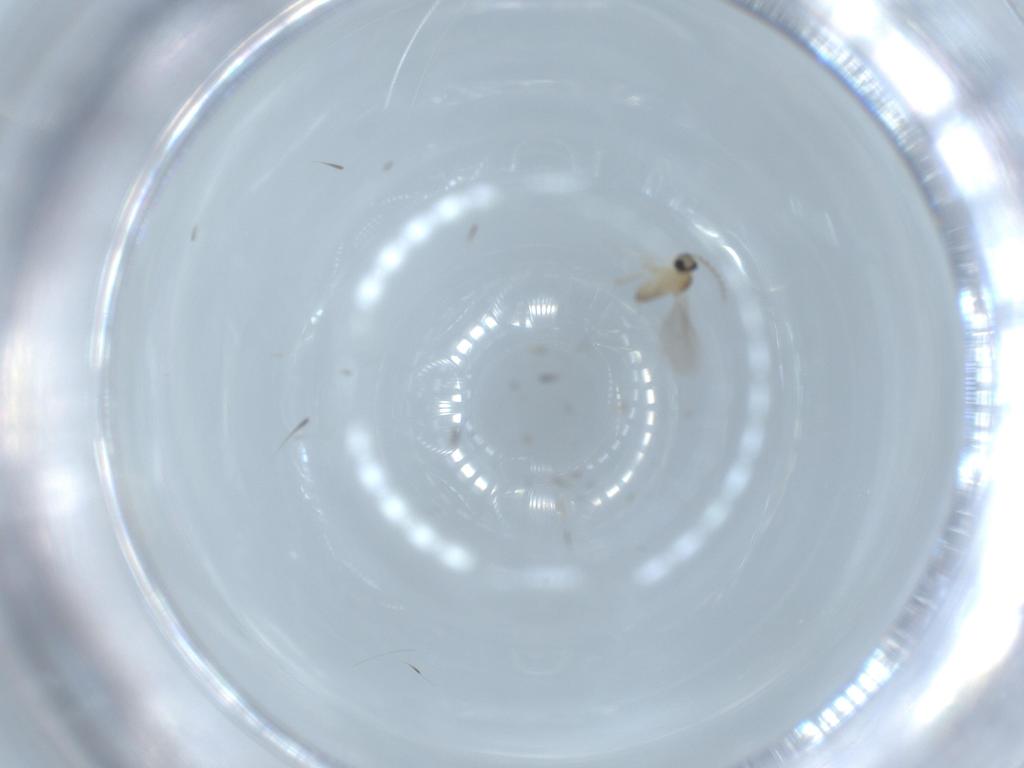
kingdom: Animalia
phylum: Arthropoda
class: Insecta
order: Diptera
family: Cecidomyiidae
